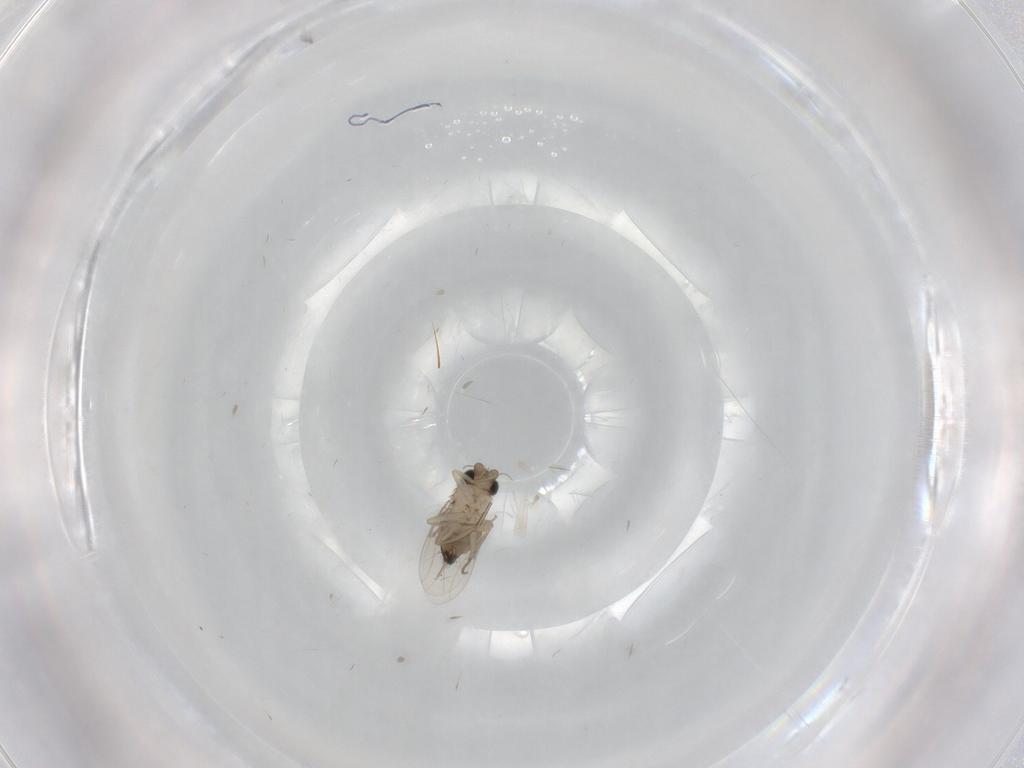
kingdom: Animalia
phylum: Arthropoda
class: Insecta
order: Diptera
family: Phoridae
